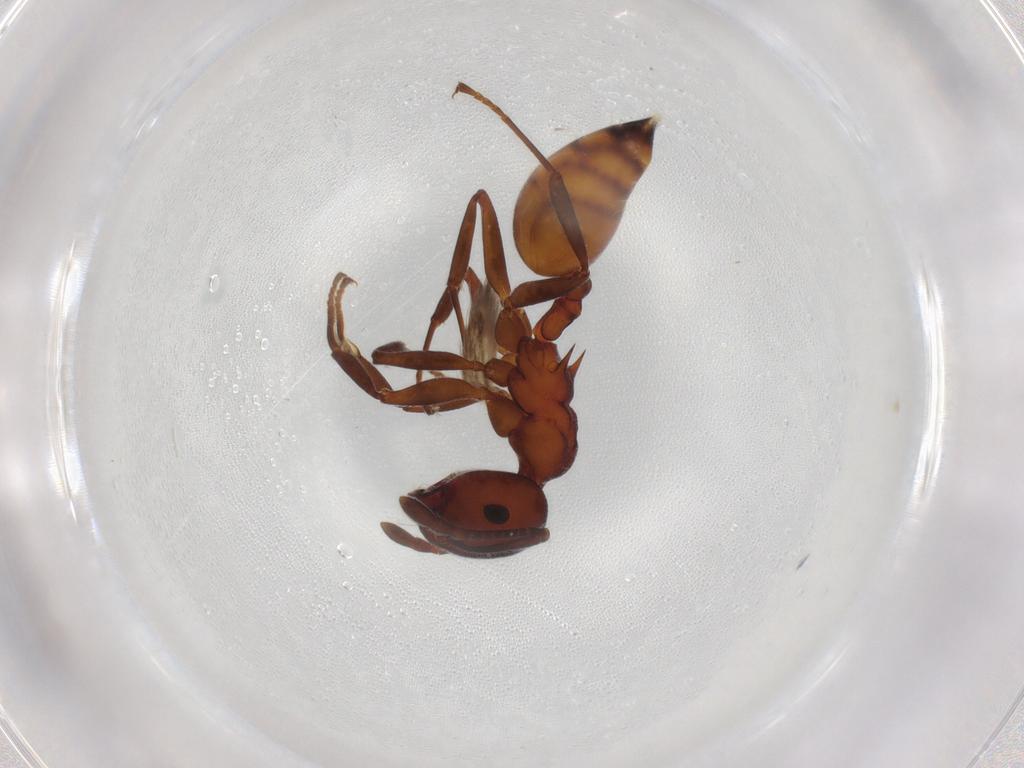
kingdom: Animalia
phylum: Arthropoda
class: Insecta
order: Hymenoptera
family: Formicidae
